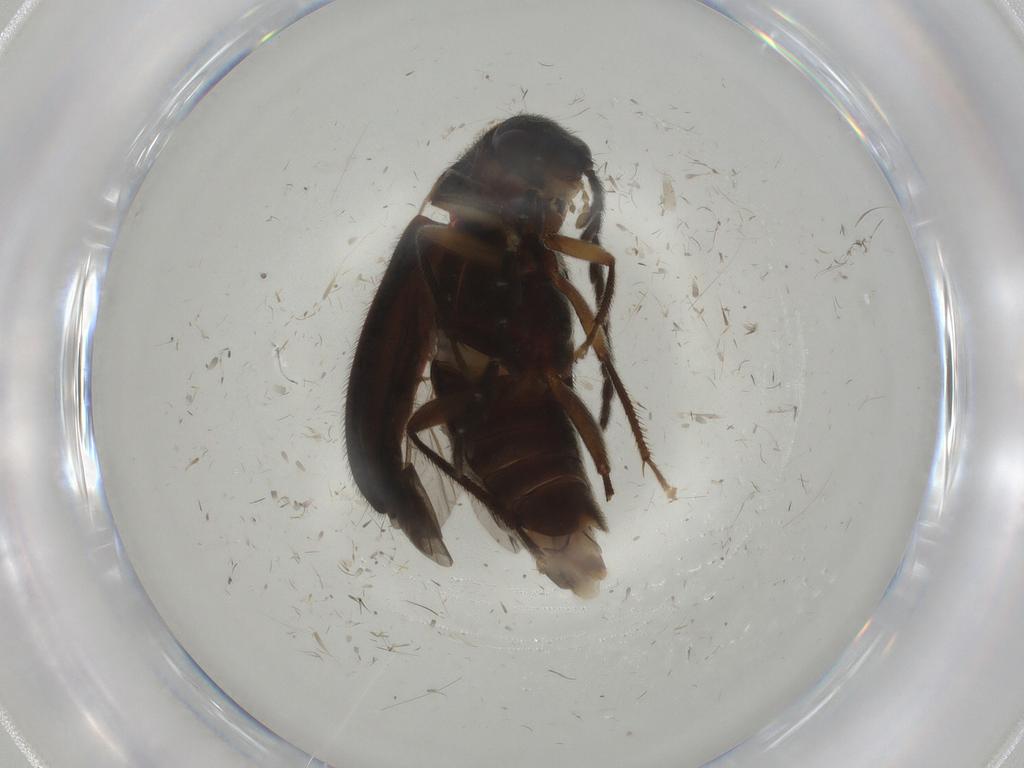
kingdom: Animalia
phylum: Arthropoda
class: Insecta
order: Coleoptera
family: Ptilodactylidae
